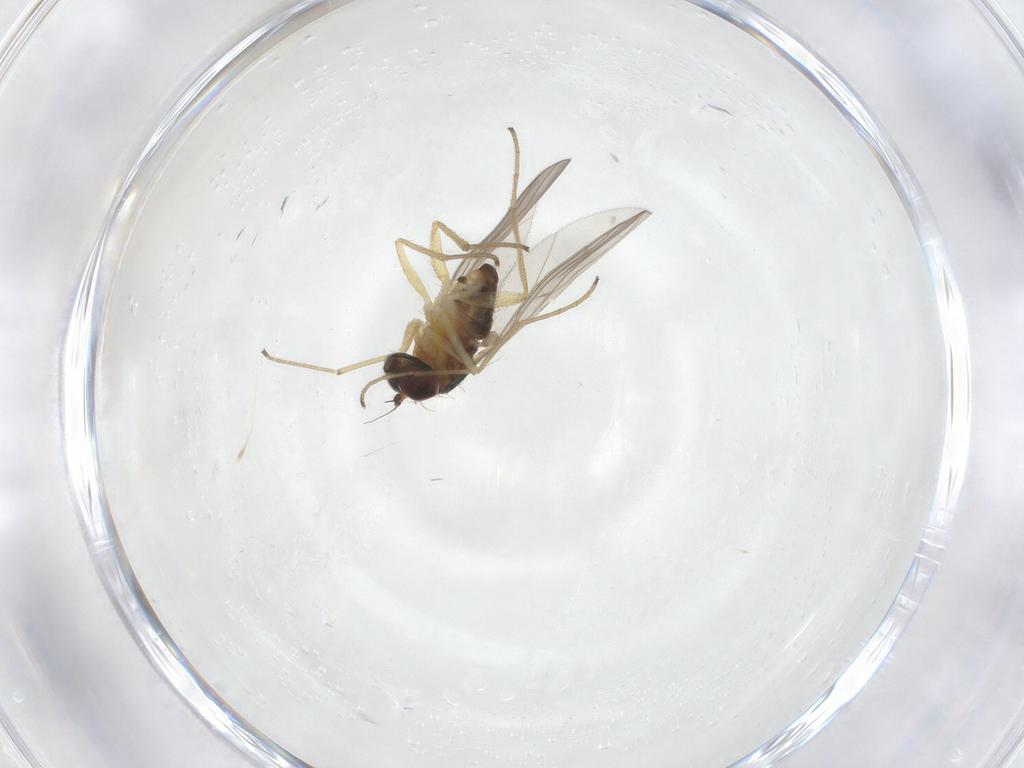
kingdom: Animalia
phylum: Arthropoda
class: Insecta
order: Diptera
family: Dolichopodidae
